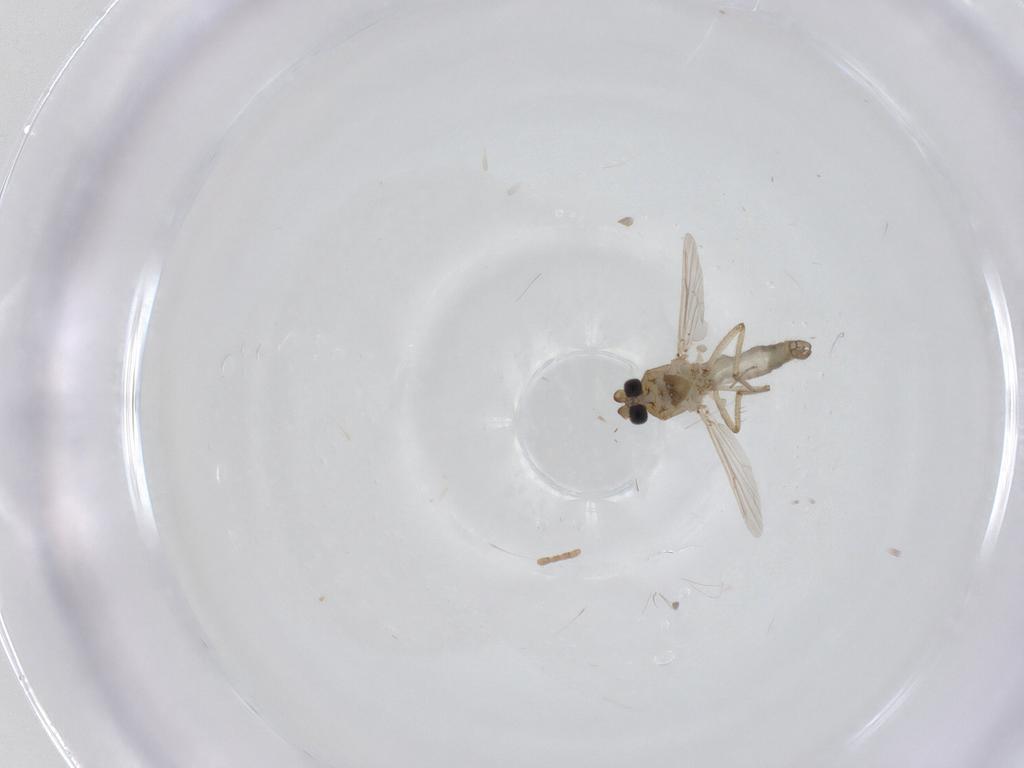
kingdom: Animalia
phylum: Arthropoda
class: Insecta
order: Diptera
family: Ceratopogonidae
